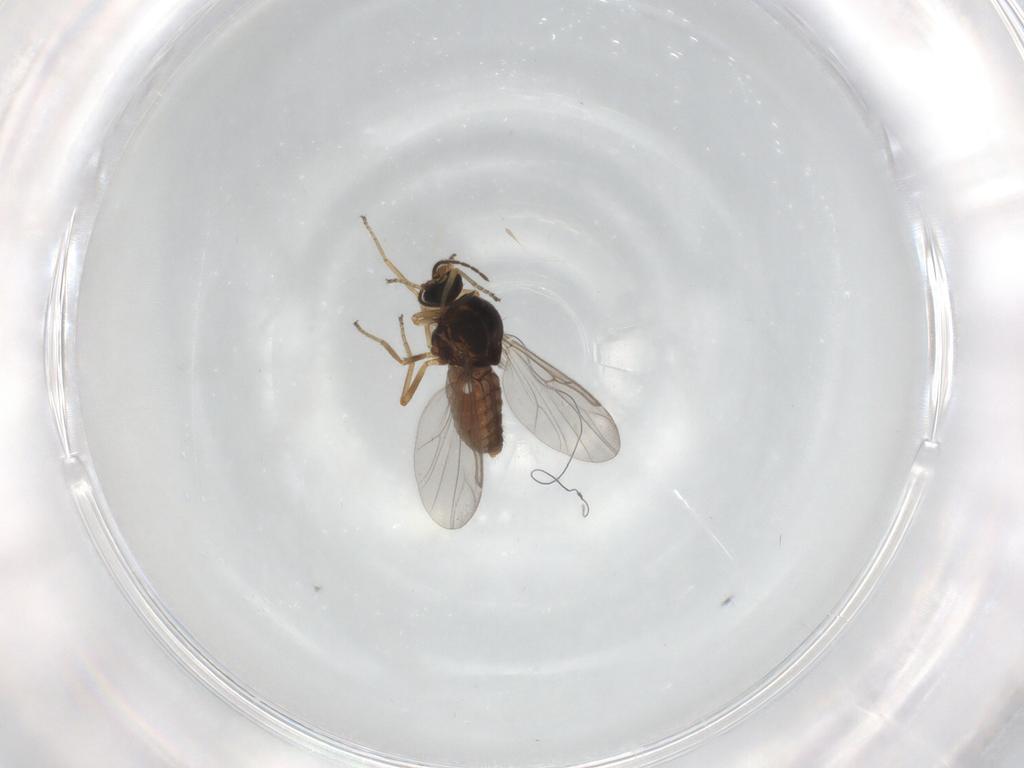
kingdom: Animalia
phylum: Arthropoda
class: Insecta
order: Diptera
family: Ceratopogonidae
